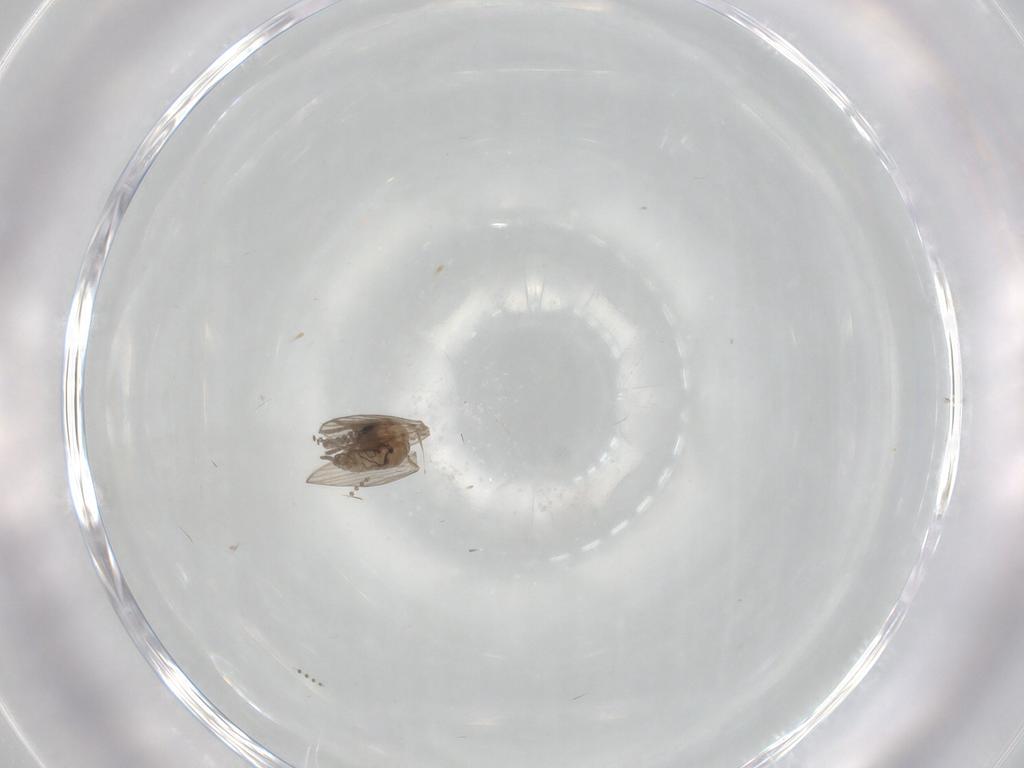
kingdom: Animalia
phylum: Arthropoda
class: Insecta
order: Diptera
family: Psychodidae
